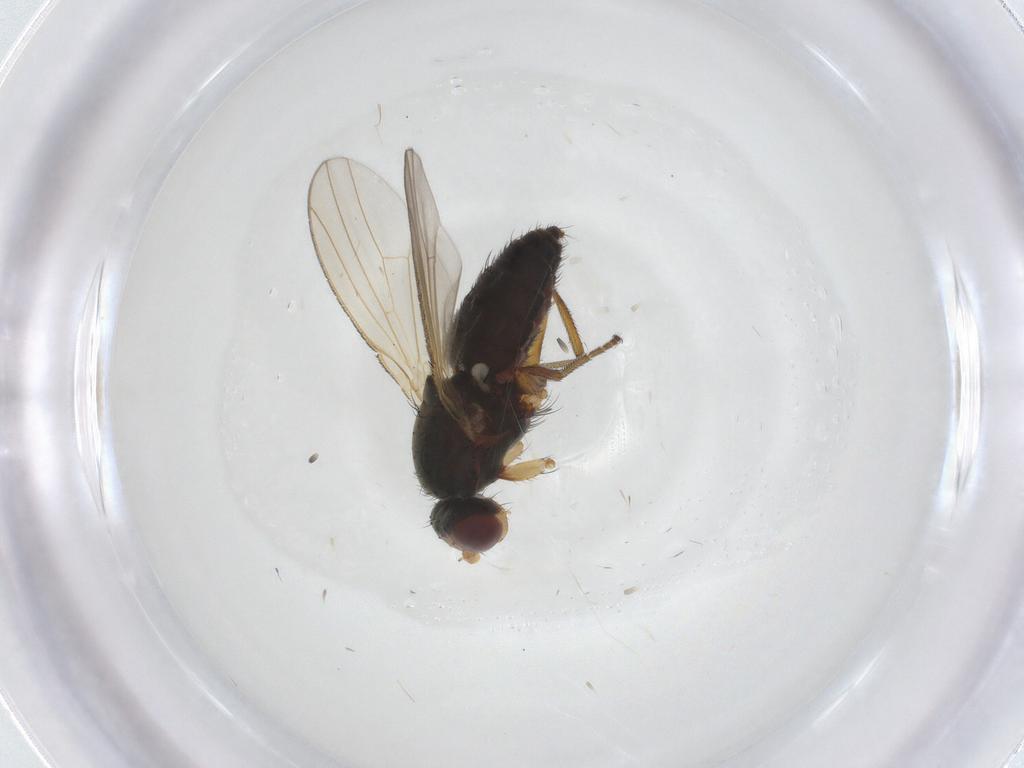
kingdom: Animalia
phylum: Arthropoda
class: Insecta
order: Diptera
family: Heleomyzidae
